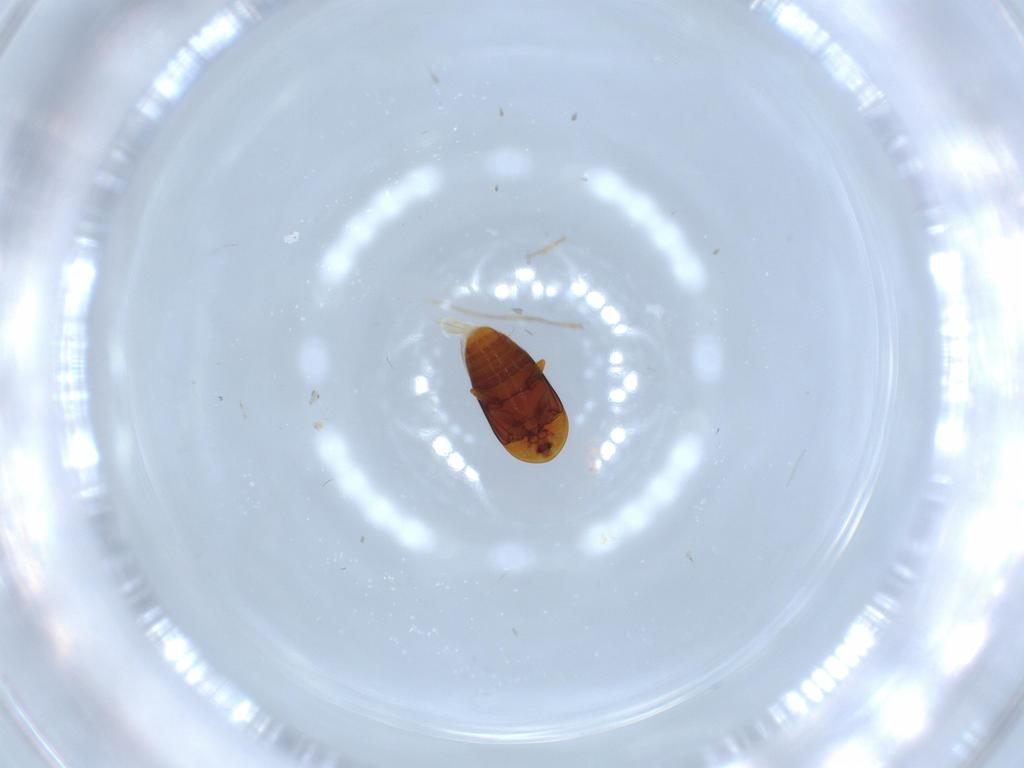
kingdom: Animalia
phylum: Arthropoda
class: Insecta
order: Coleoptera
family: Corylophidae
